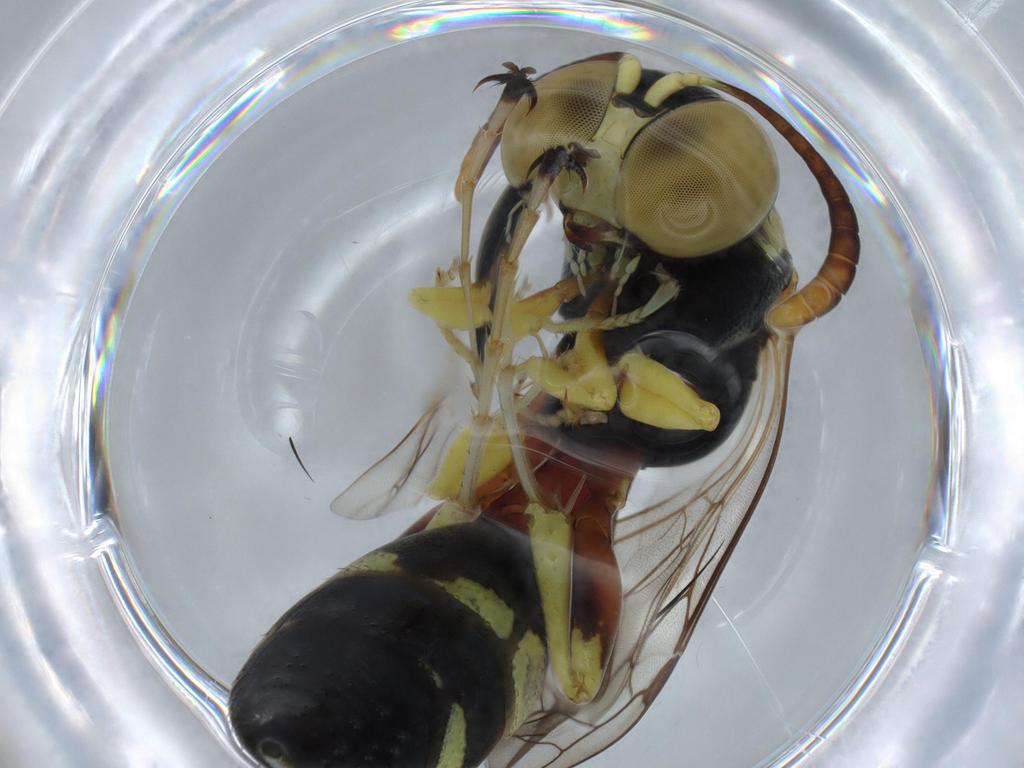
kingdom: Animalia
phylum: Arthropoda
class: Insecta
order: Hymenoptera
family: Bembicidae
